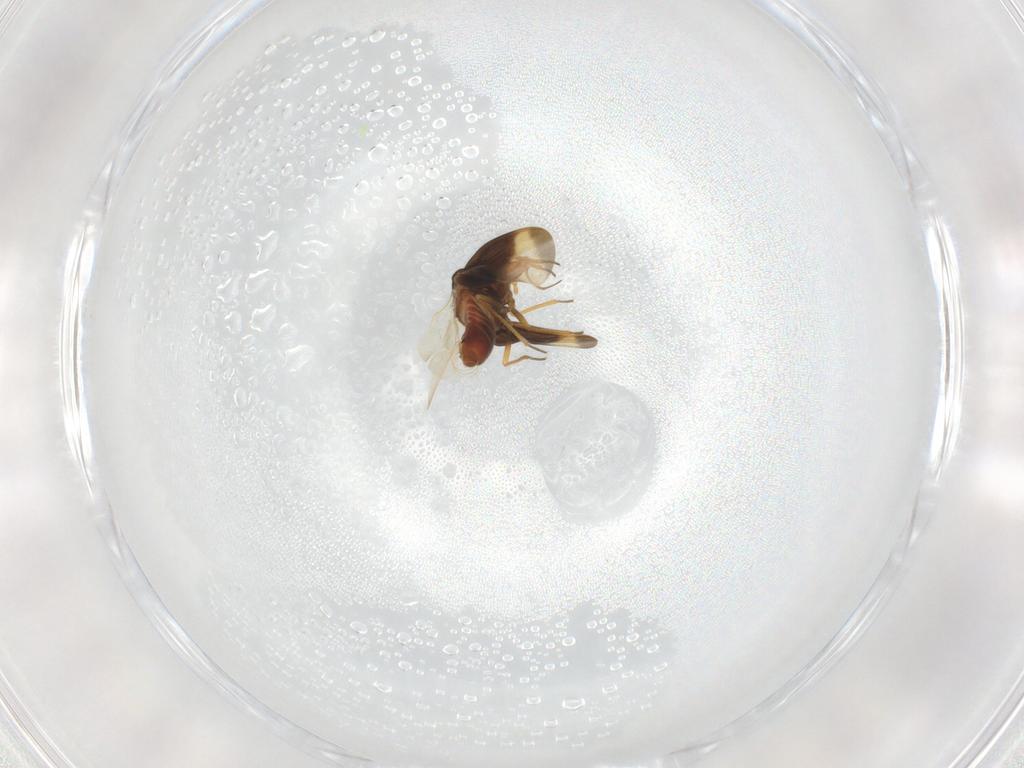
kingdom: Animalia
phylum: Arthropoda
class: Insecta
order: Hemiptera
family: Schizopteridae
